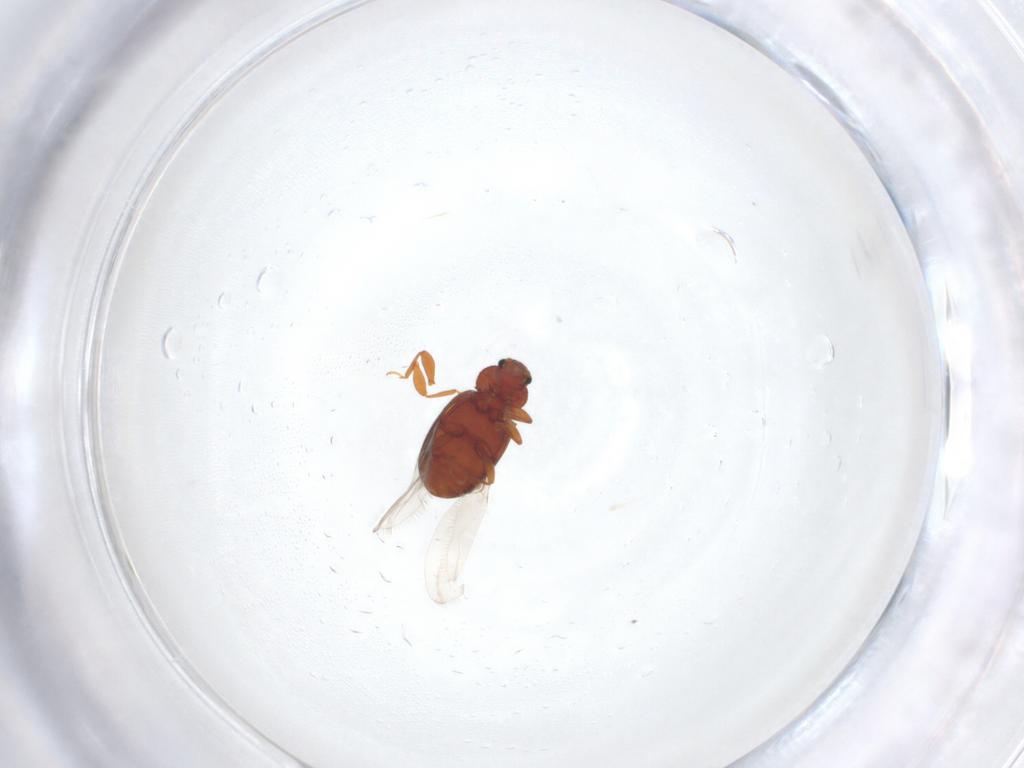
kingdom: Animalia
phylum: Arthropoda
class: Insecta
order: Coleoptera
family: Latridiidae
